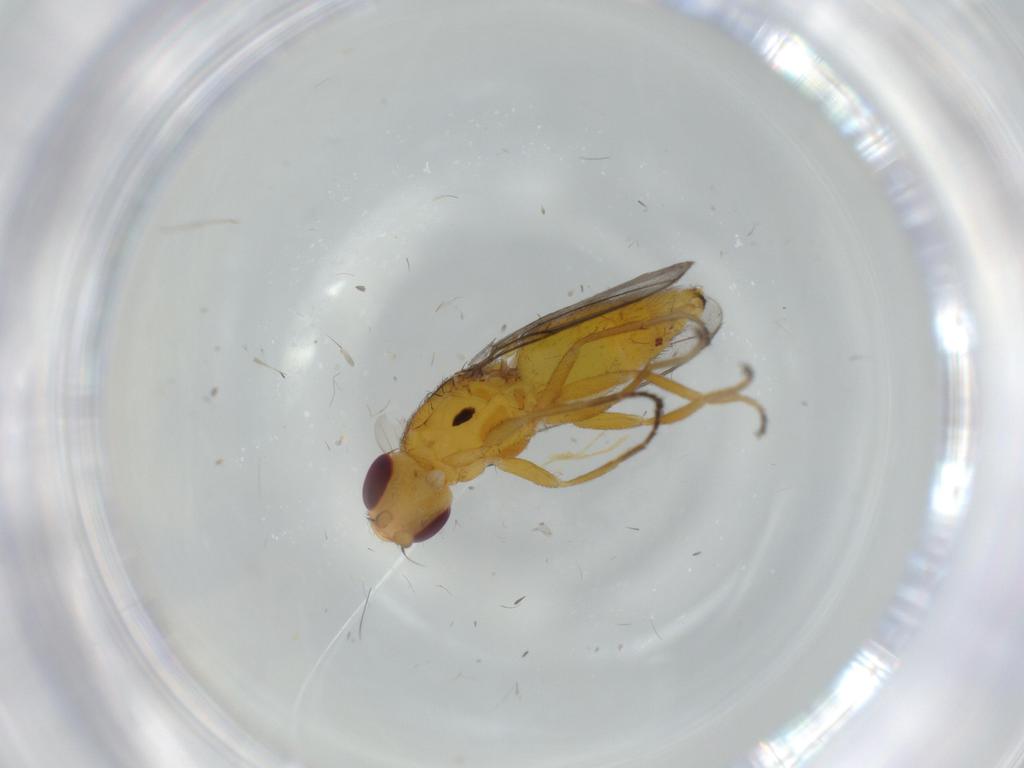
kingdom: Animalia
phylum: Arthropoda
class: Insecta
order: Diptera
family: Chloropidae
